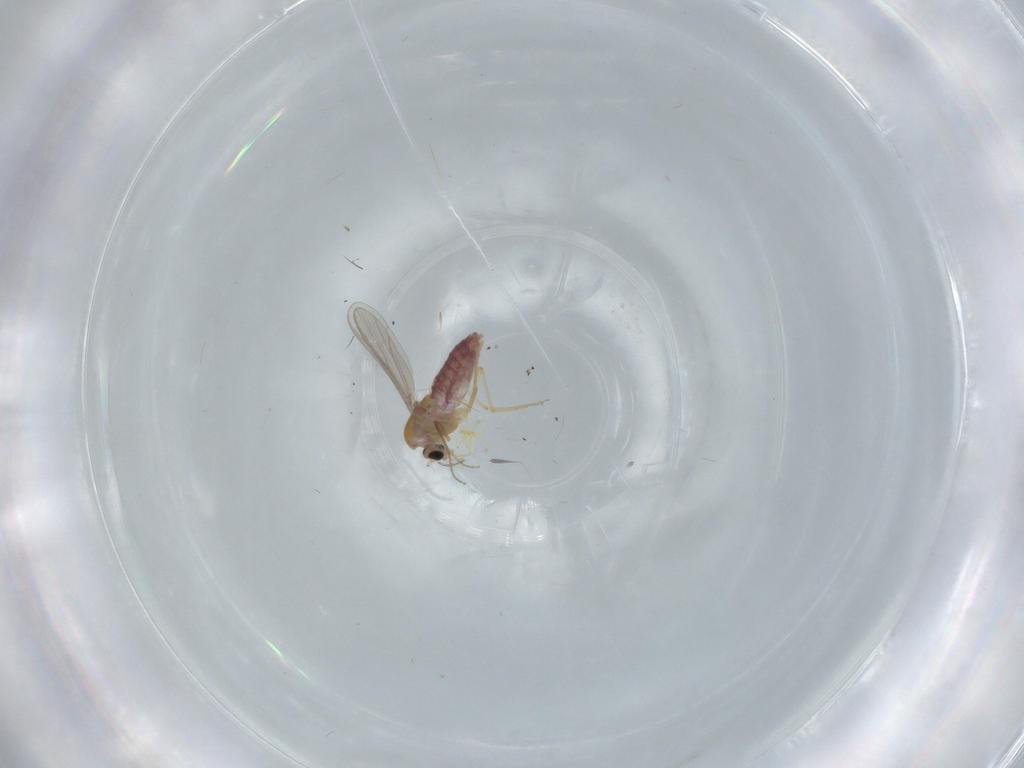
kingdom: Animalia
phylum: Arthropoda
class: Insecta
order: Diptera
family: Chironomidae
